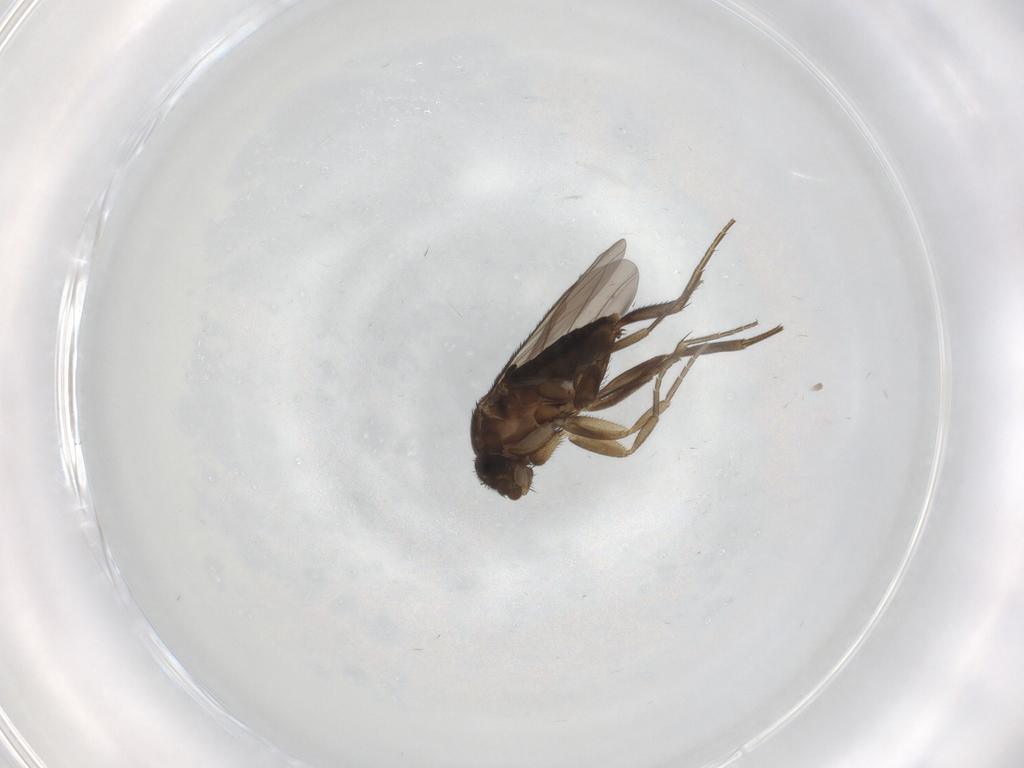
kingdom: Animalia
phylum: Arthropoda
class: Insecta
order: Diptera
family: Phoridae
